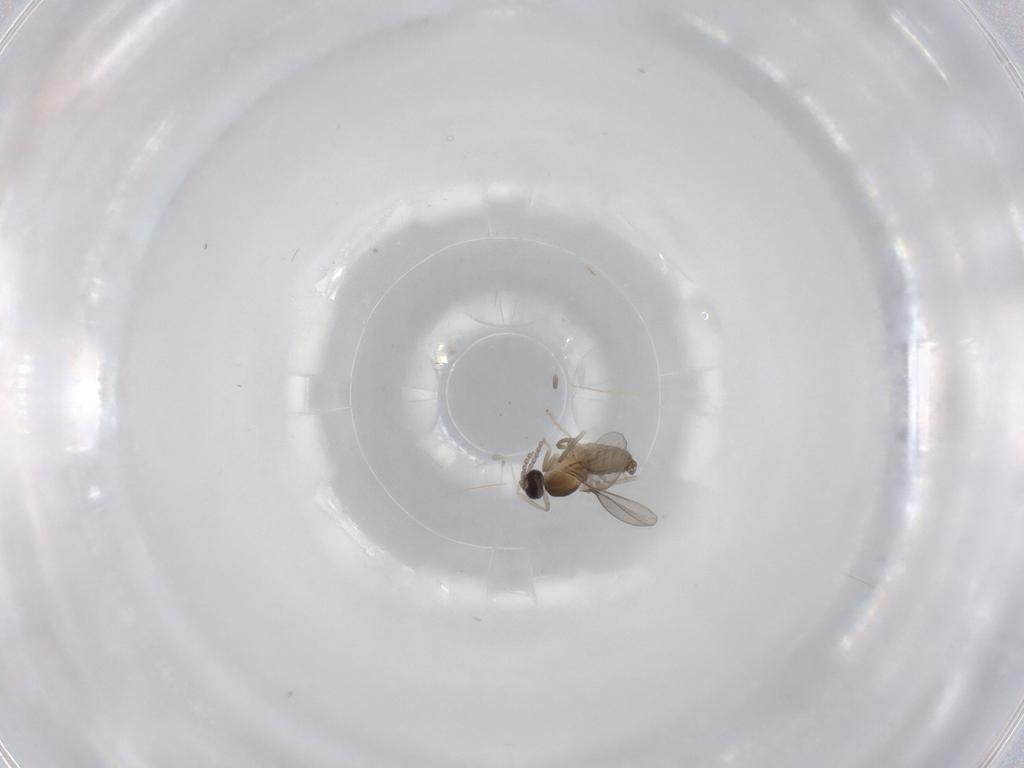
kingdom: Animalia
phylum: Arthropoda
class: Insecta
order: Diptera
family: Cecidomyiidae
